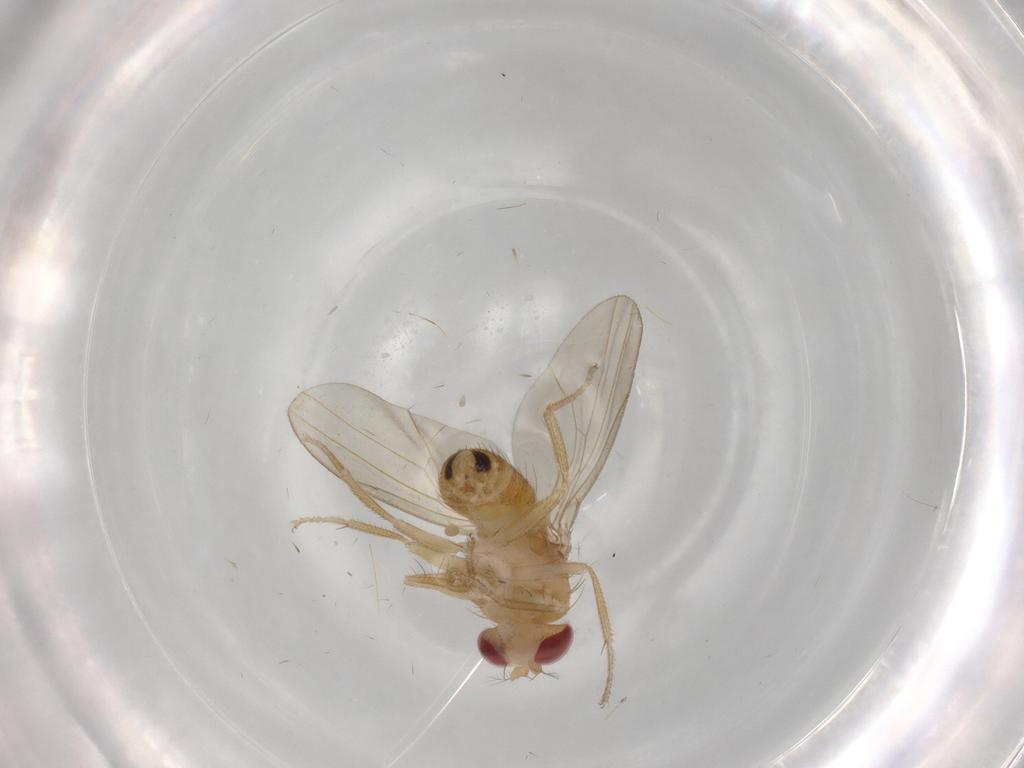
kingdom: Animalia
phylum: Arthropoda
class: Insecta
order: Diptera
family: Drosophilidae
